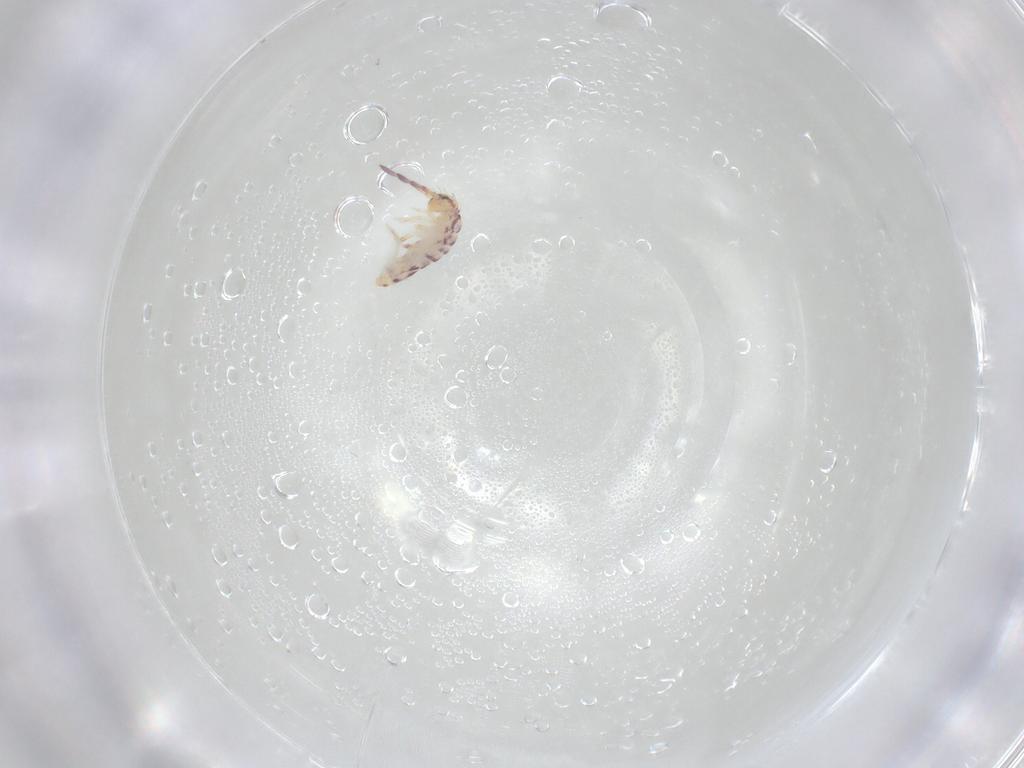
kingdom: Animalia
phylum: Arthropoda
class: Collembola
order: Entomobryomorpha
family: Entomobryidae
